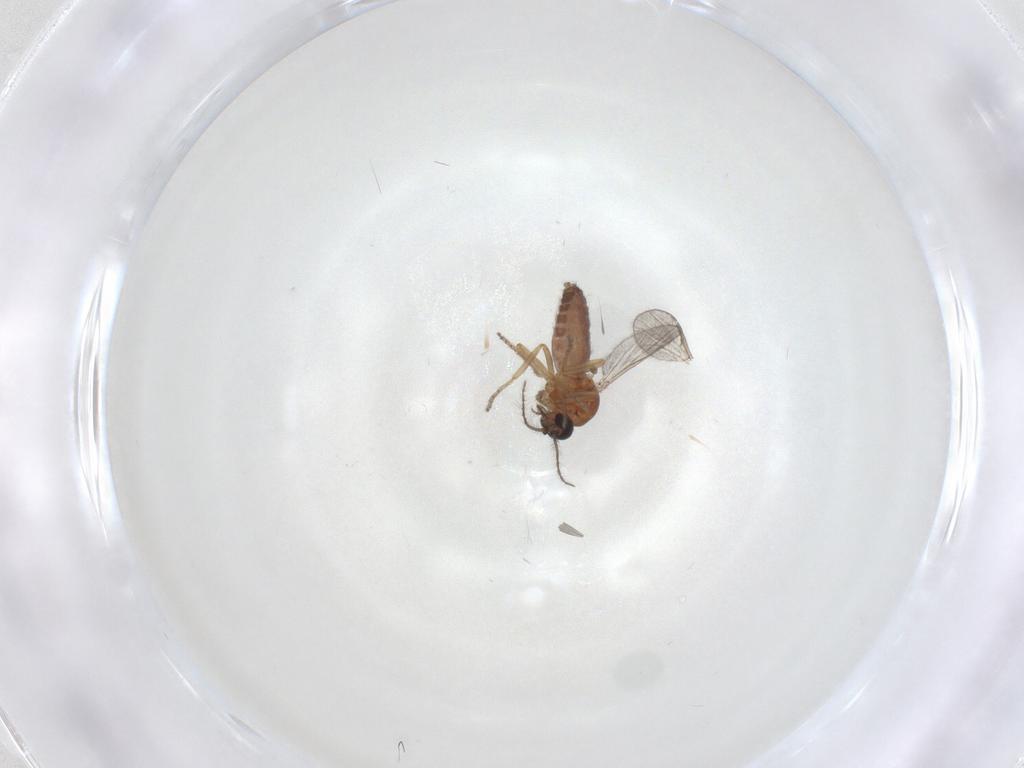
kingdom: Animalia
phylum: Arthropoda
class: Insecta
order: Diptera
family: Ceratopogonidae
